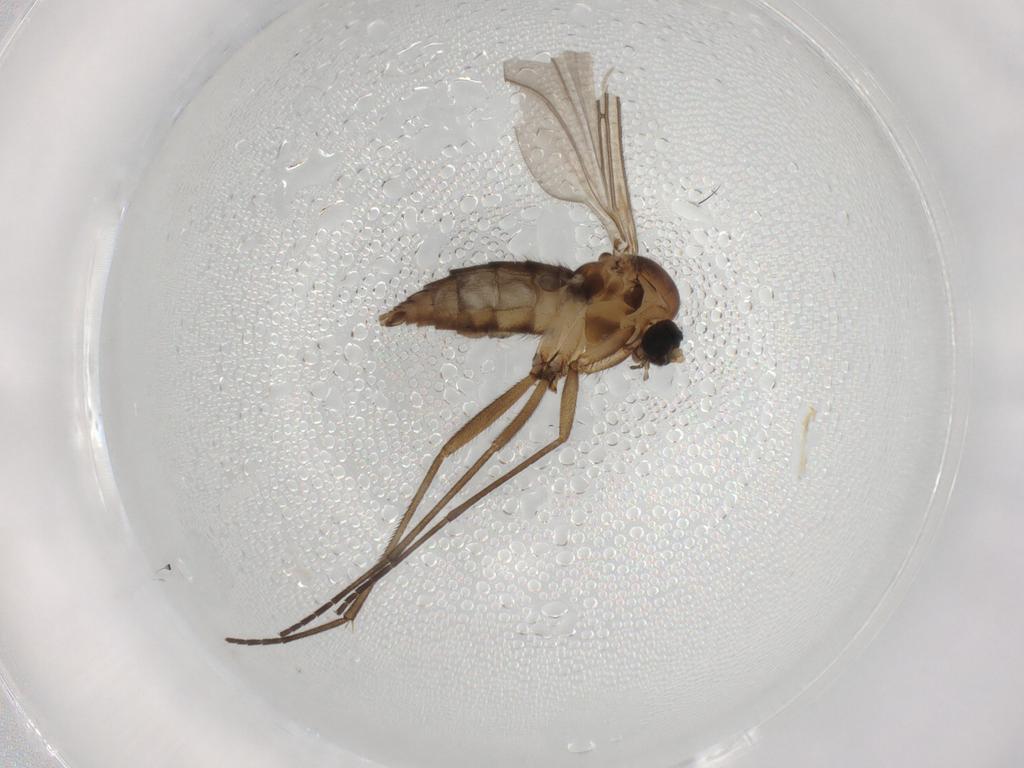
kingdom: Animalia
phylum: Arthropoda
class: Insecta
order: Diptera
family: Sciaridae
